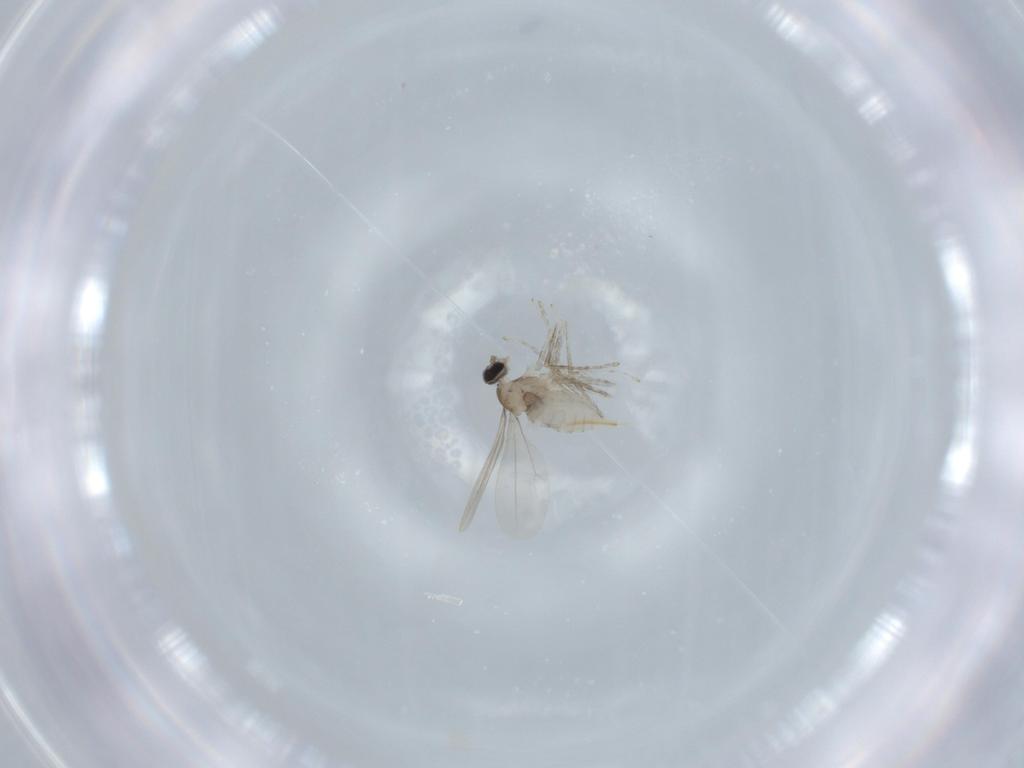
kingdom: Animalia
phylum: Arthropoda
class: Insecta
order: Diptera
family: Cecidomyiidae
